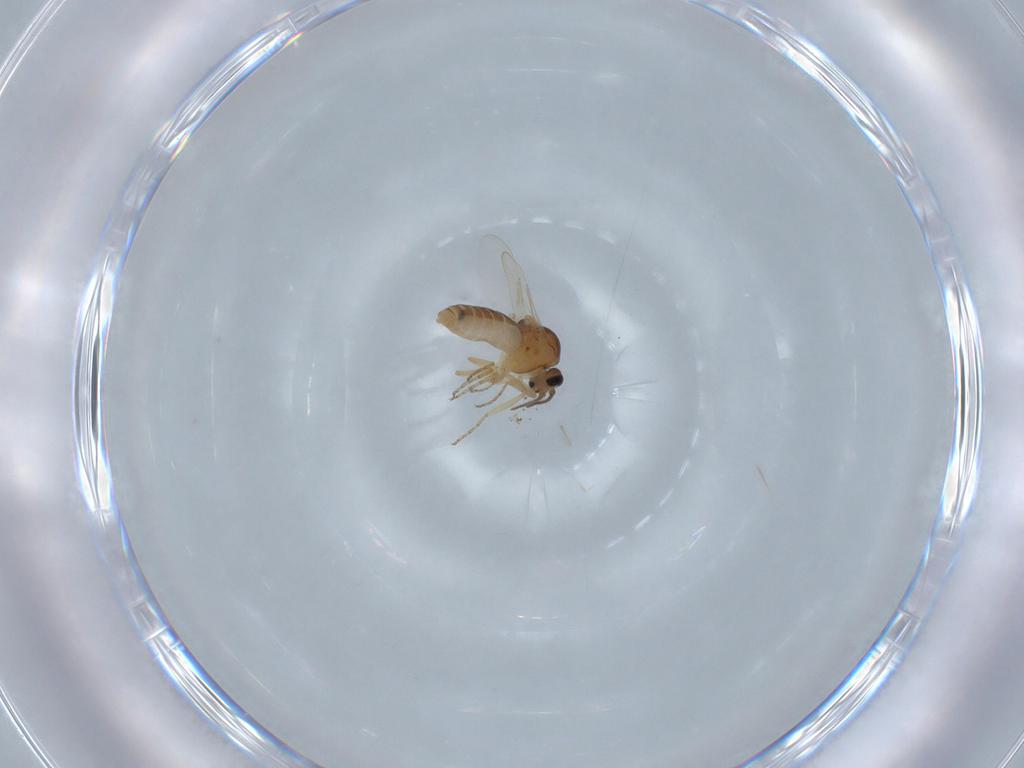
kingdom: Animalia
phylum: Arthropoda
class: Insecta
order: Diptera
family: Ceratopogonidae
